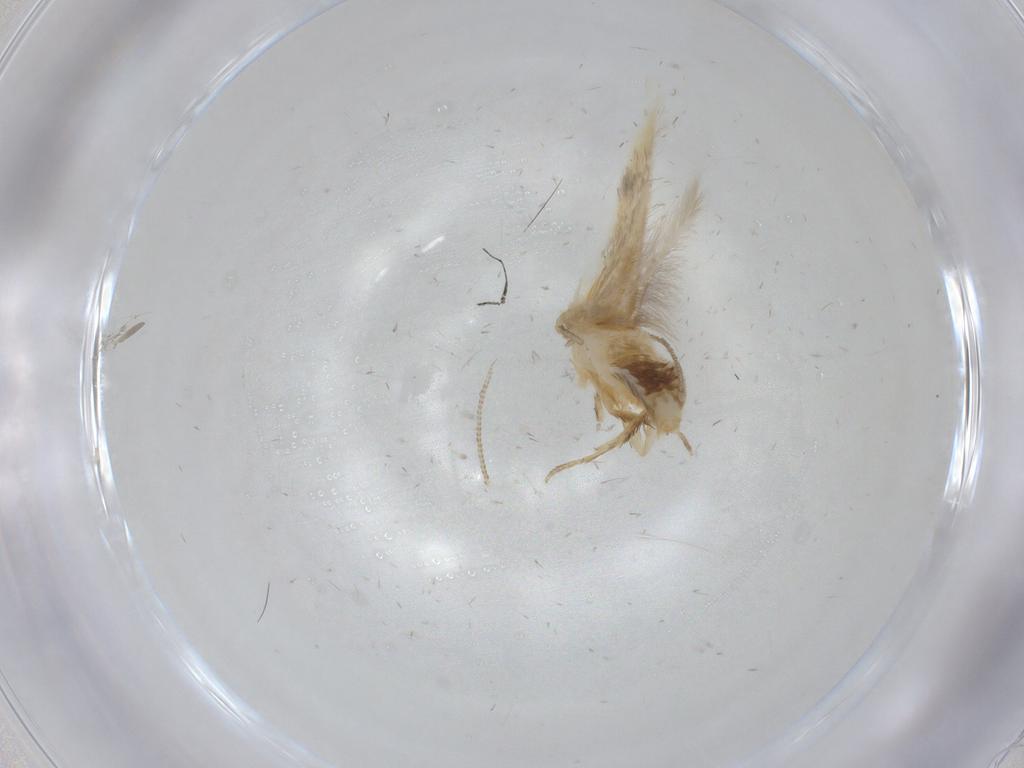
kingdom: Animalia
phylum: Arthropoda
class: Insecta
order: Lepidoptera
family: Opostegidae
